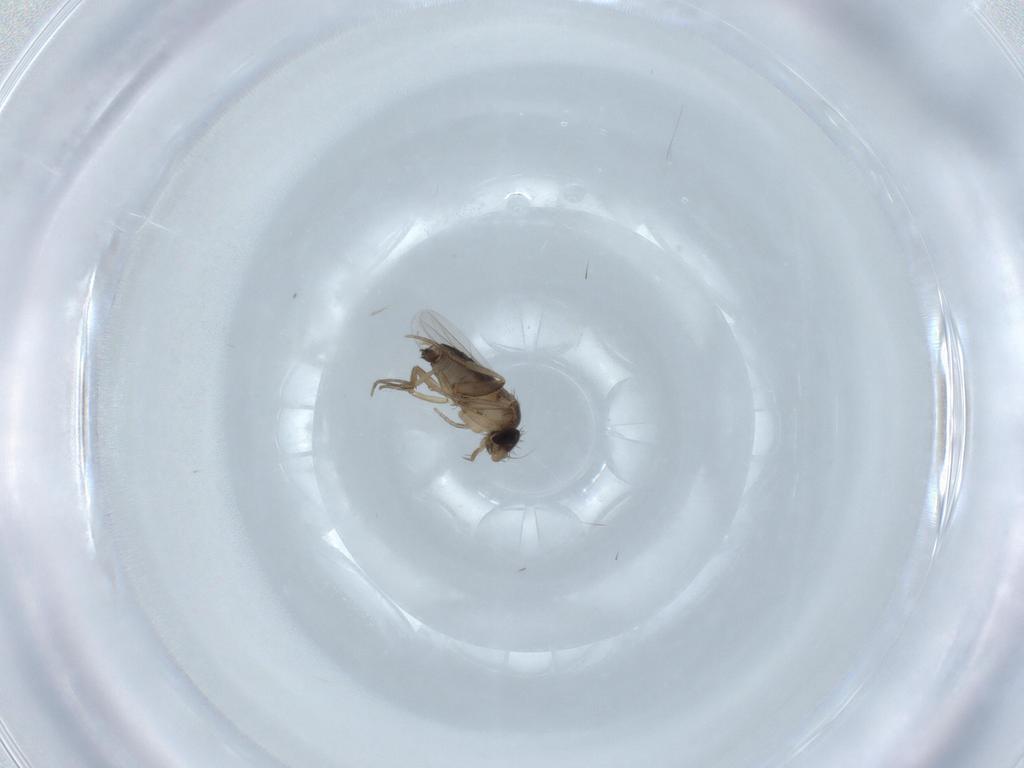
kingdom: Animalia
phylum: Arthropoda
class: Insecta
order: Diptera
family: Phoridae
